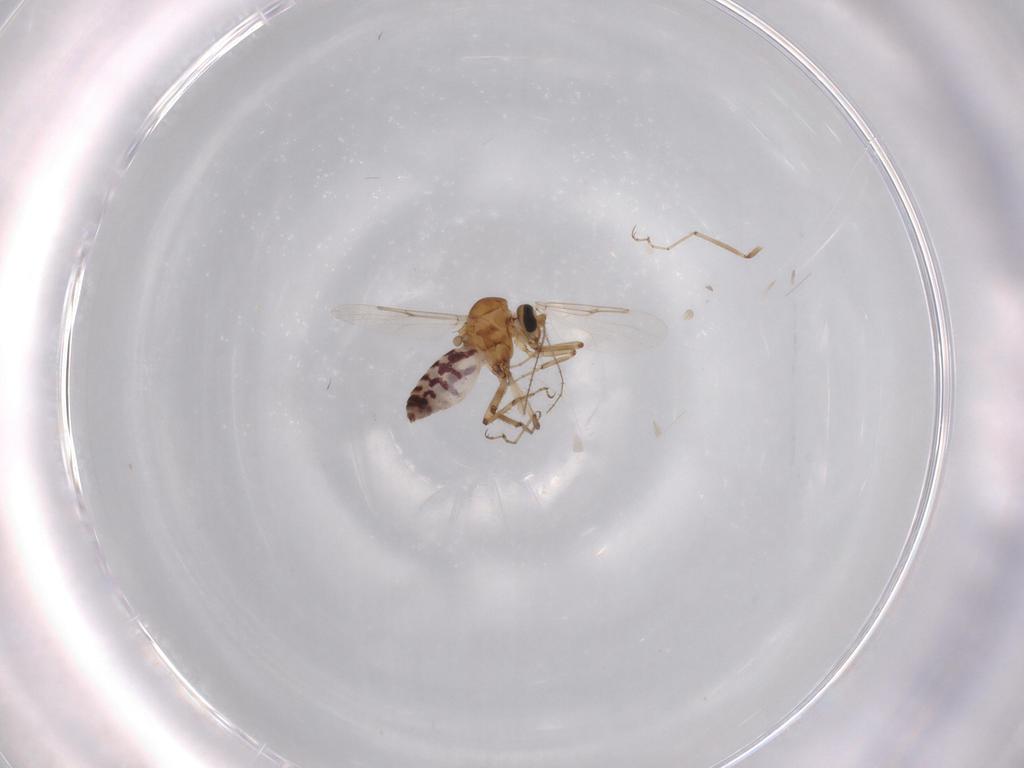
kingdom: Animalia
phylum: Arthropoda
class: Insecta
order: Diptera
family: Ceratopogonidae
